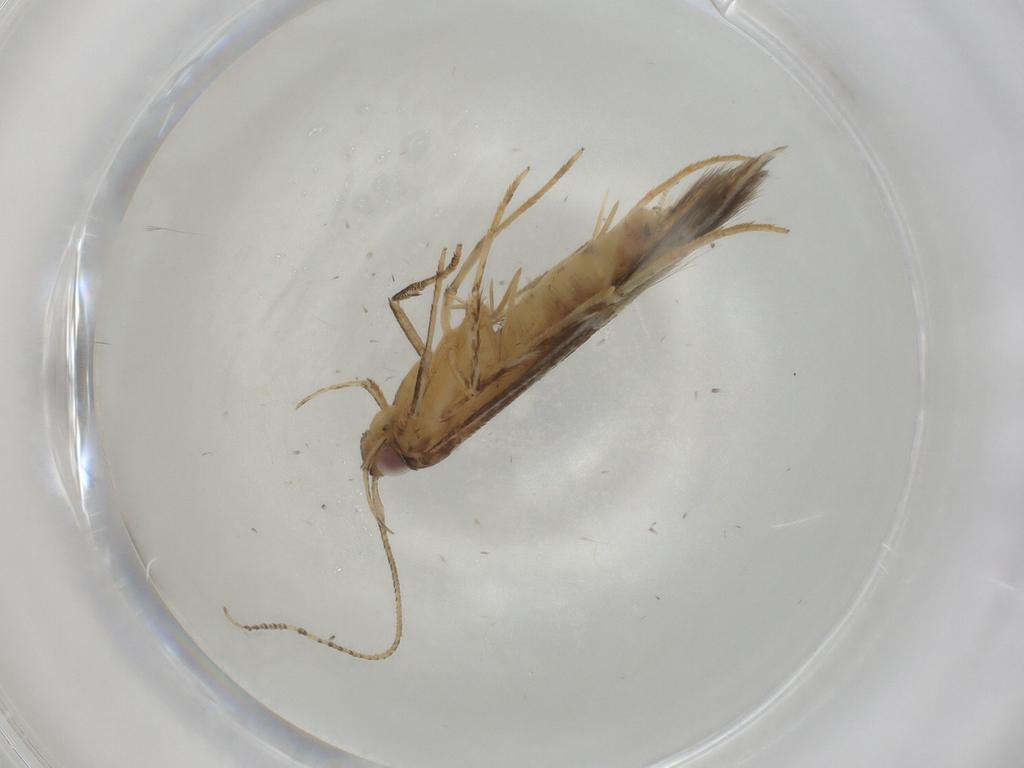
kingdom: Animalia
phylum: Arthropoda
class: Insecta
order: Lepidoptera
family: Cosmopterigidae
